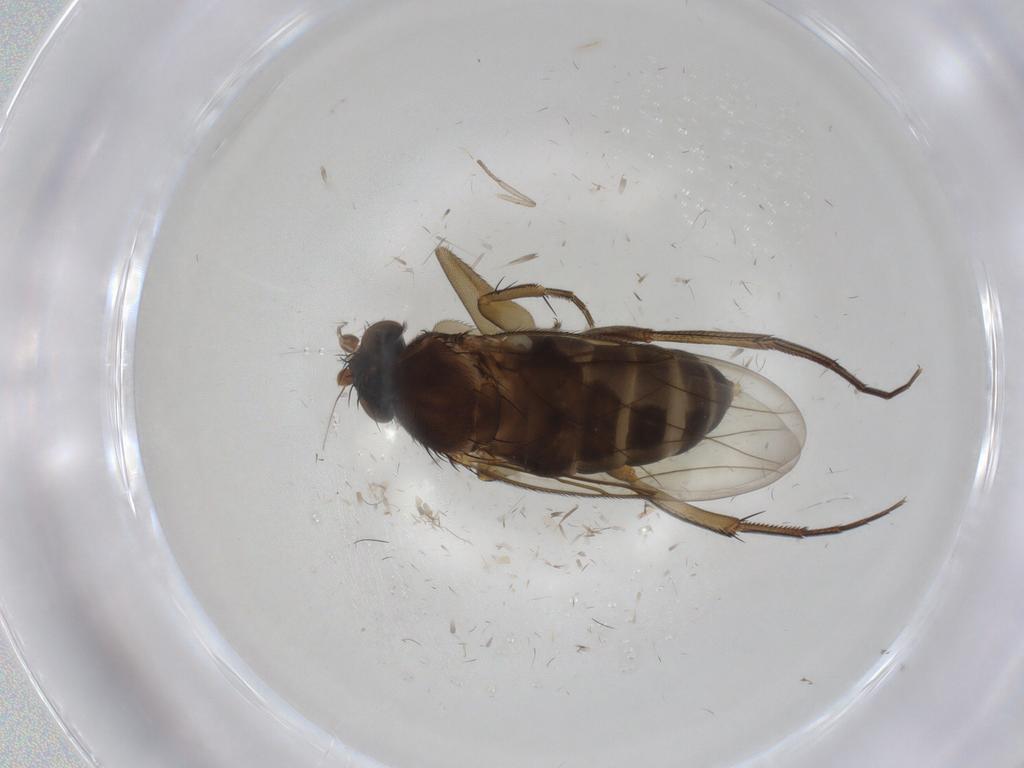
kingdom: Animalia
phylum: Arthropoda
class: Insecta
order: Diptera
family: Phoridae
